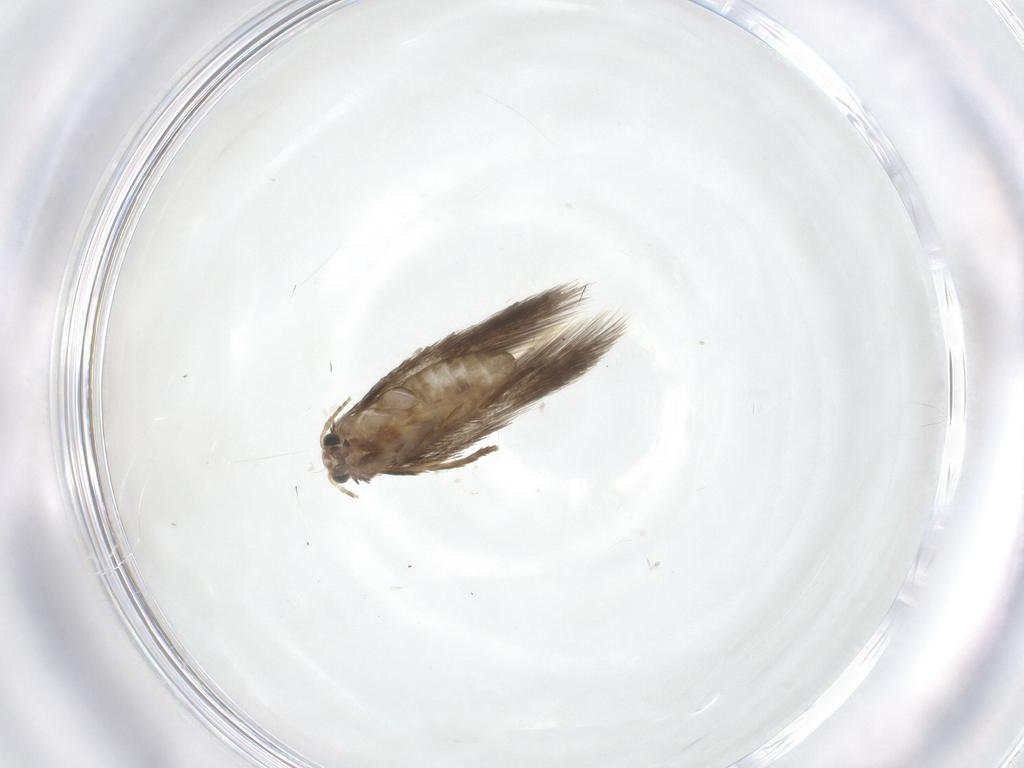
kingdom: Animalia
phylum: Arthropoda
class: Insecta
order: Lepidoptera
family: Nepticulidae
